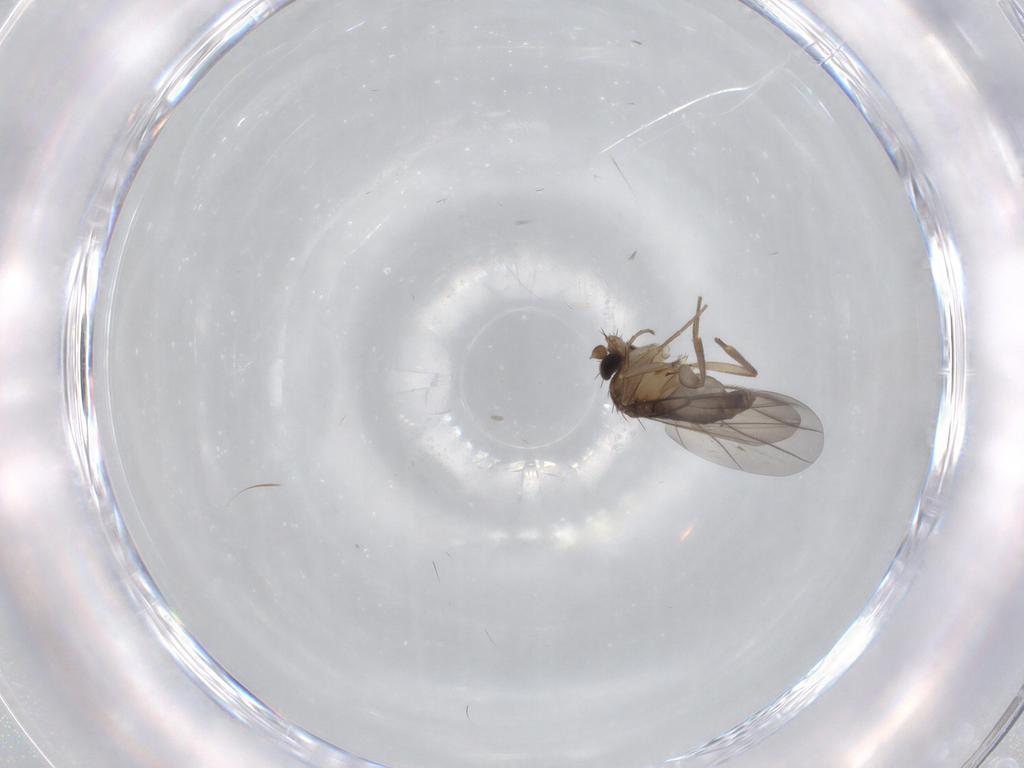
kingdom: Animalia
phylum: Arthropoda
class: Insecta
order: Diptera
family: Phoridae
